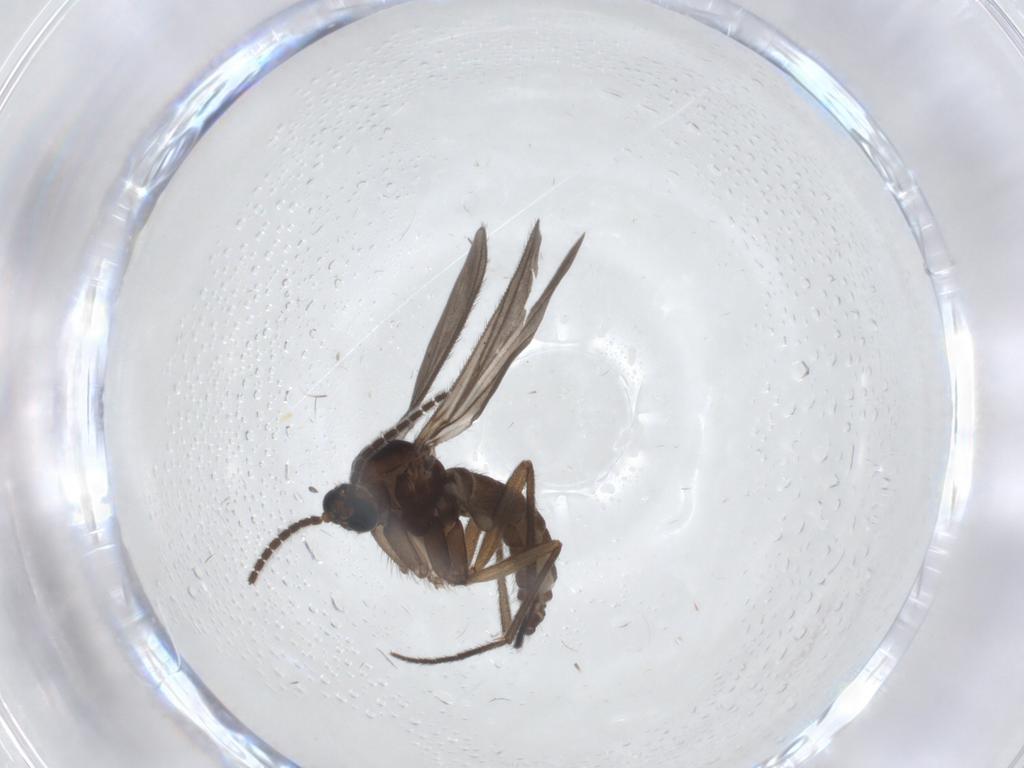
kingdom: Animalia
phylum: Arthropoda
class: Insecta
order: Diptera
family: Sciaridae
